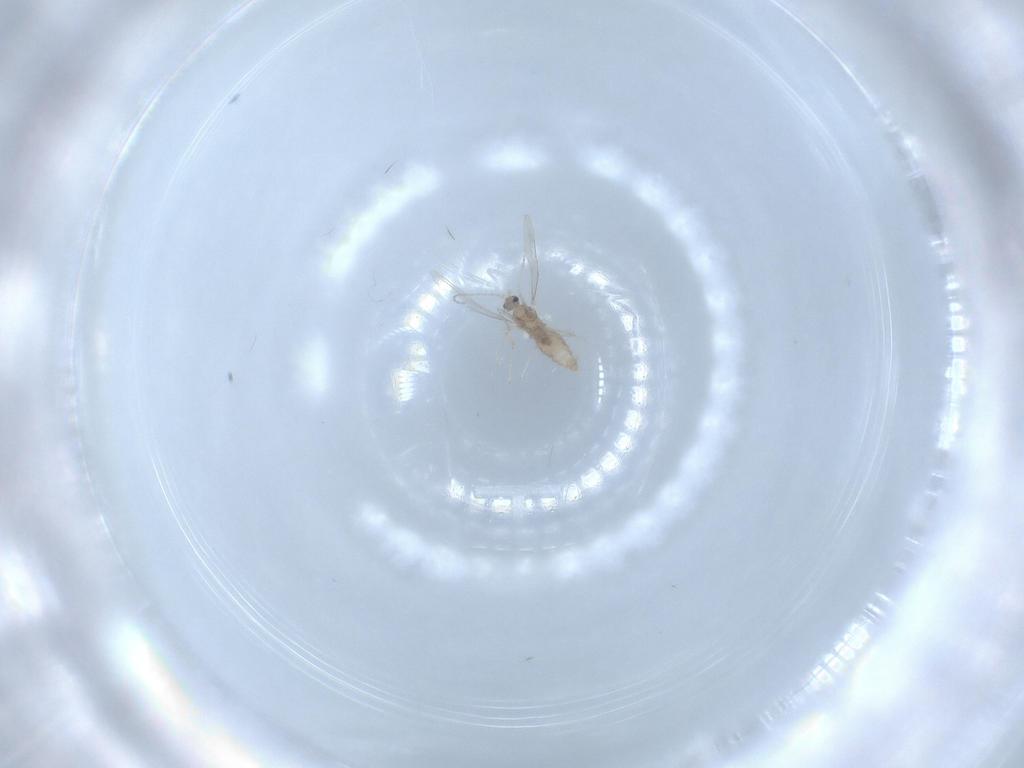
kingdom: Animalia
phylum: Arthropoda
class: Insecta
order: Diptera
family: Cecidomyiidae
